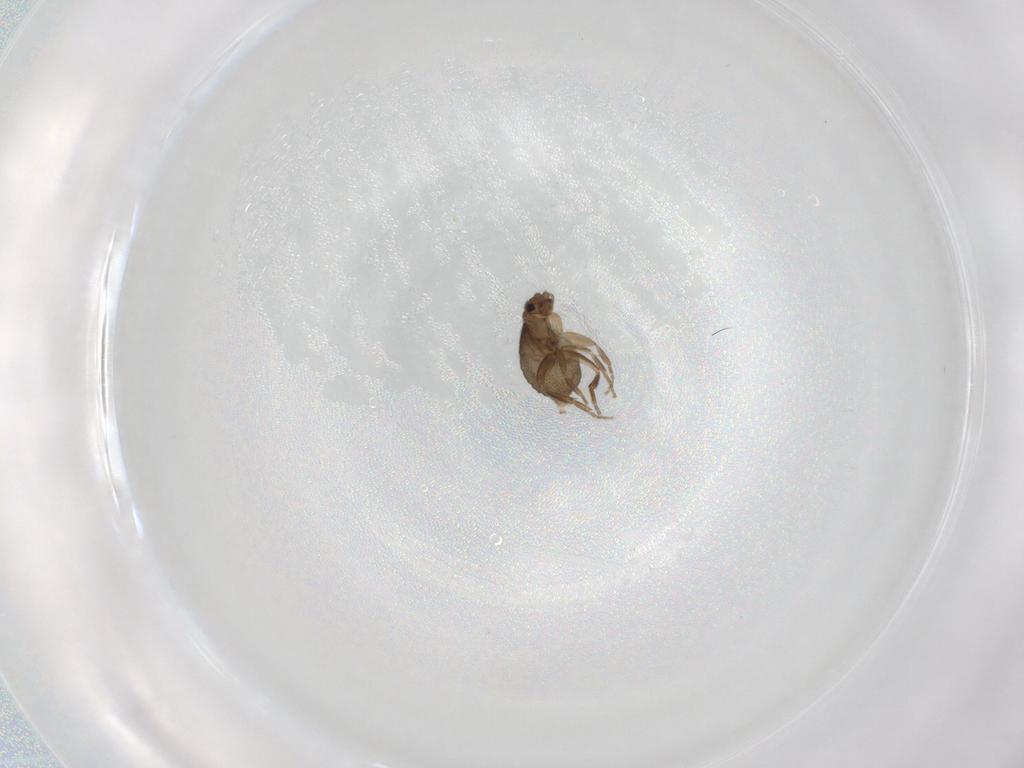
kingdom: Animalia
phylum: Arthropoda
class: Insecta
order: Diptera
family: Phoridae
